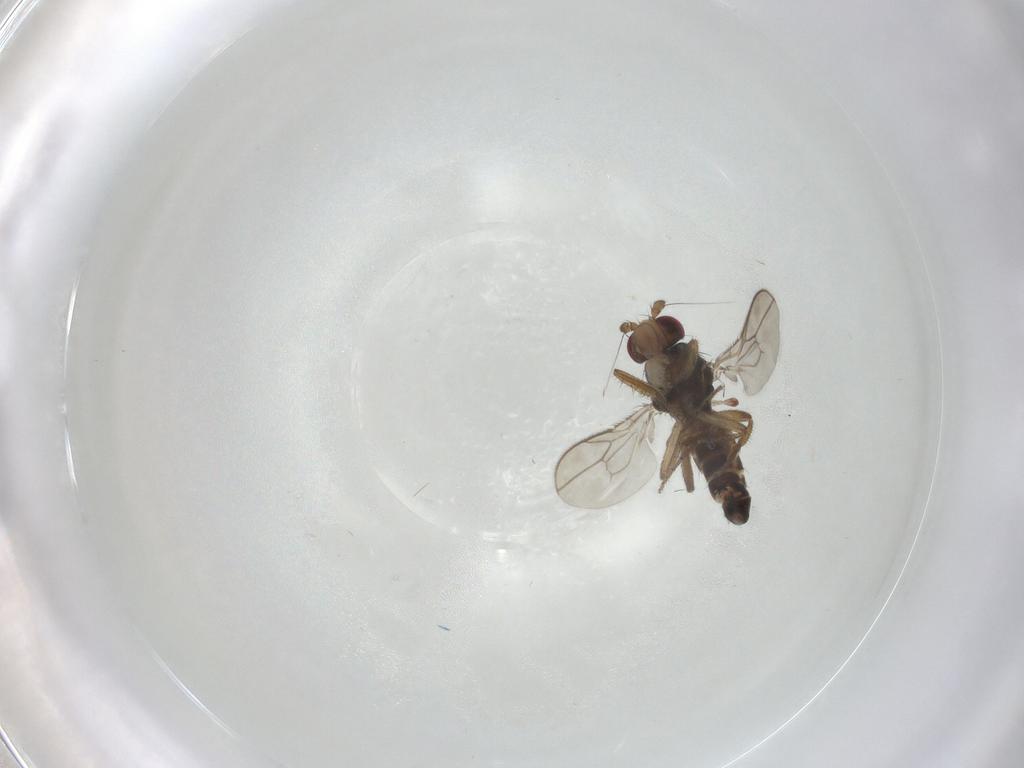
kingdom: Animalia
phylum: Arthropoda
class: Insecta
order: Diptera
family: Sphaeroceridae
